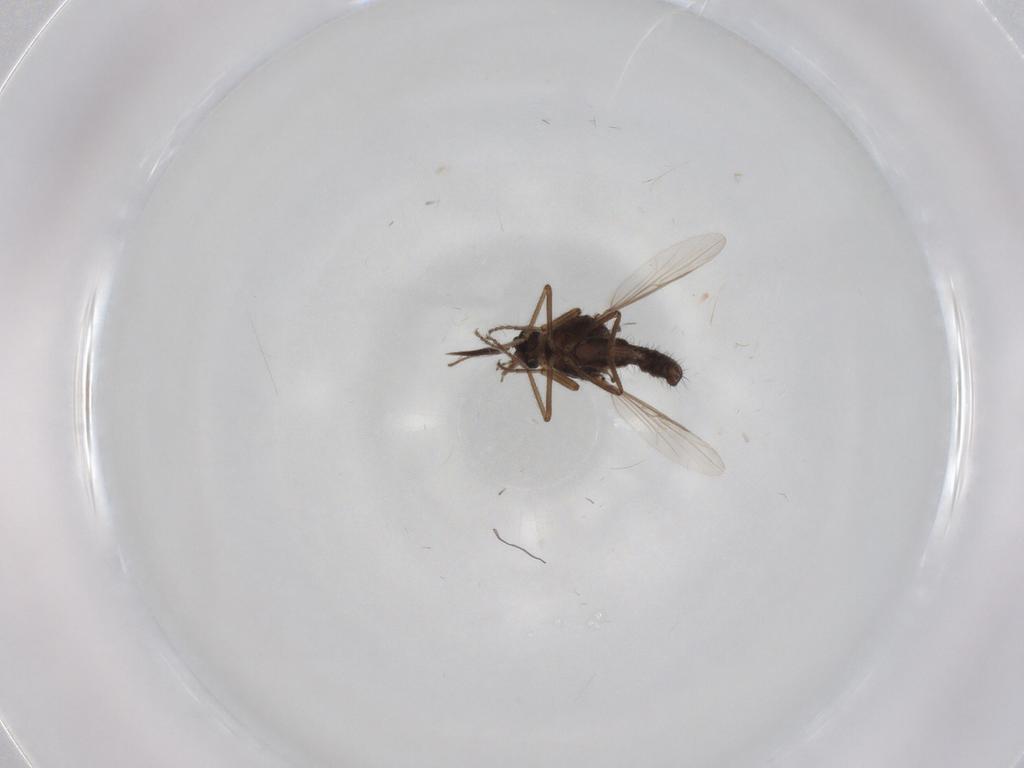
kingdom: Animalia
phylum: Arthropoda
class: Insecta
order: Diptera
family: Ceratopogonidae
